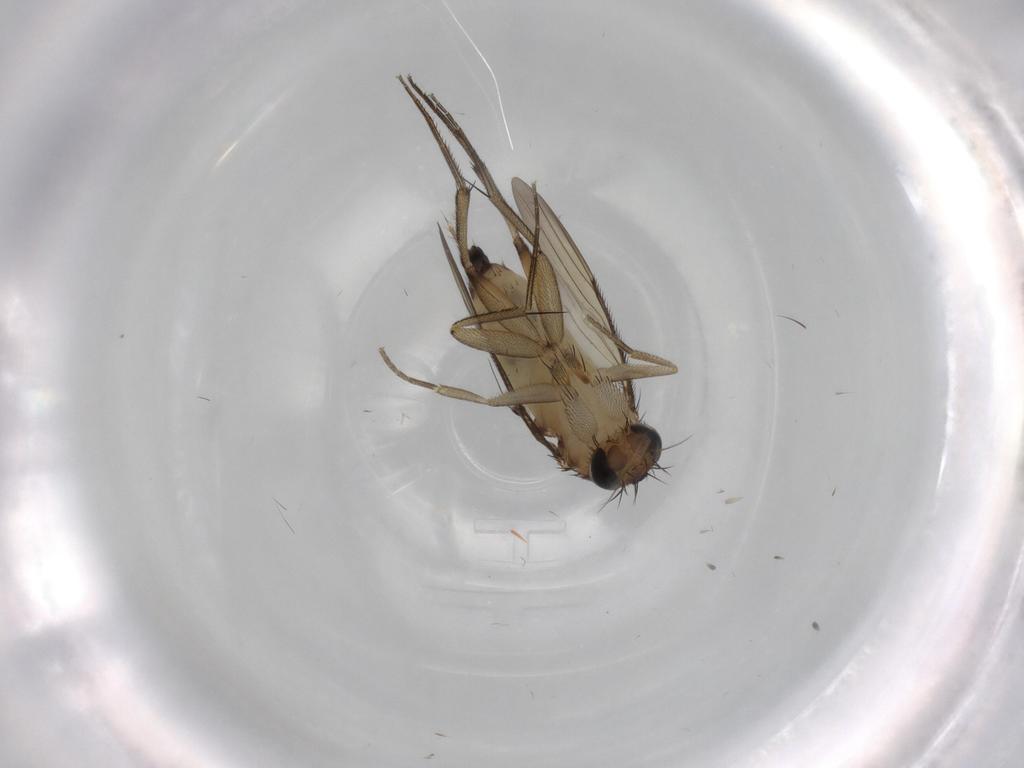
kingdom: Animalia
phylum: Arthropoda
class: Insecta
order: Diptera
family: Phoridae
